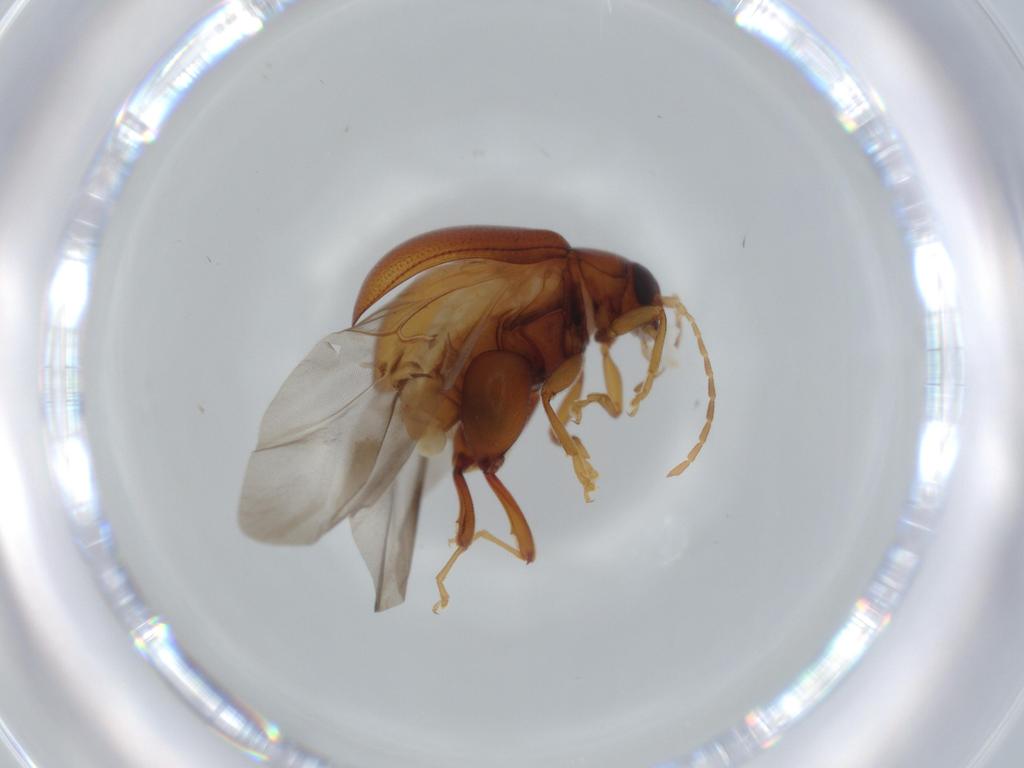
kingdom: Animalia
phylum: Arthropoda
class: Insecta
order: Coleoptera
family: Chrysomelidae
